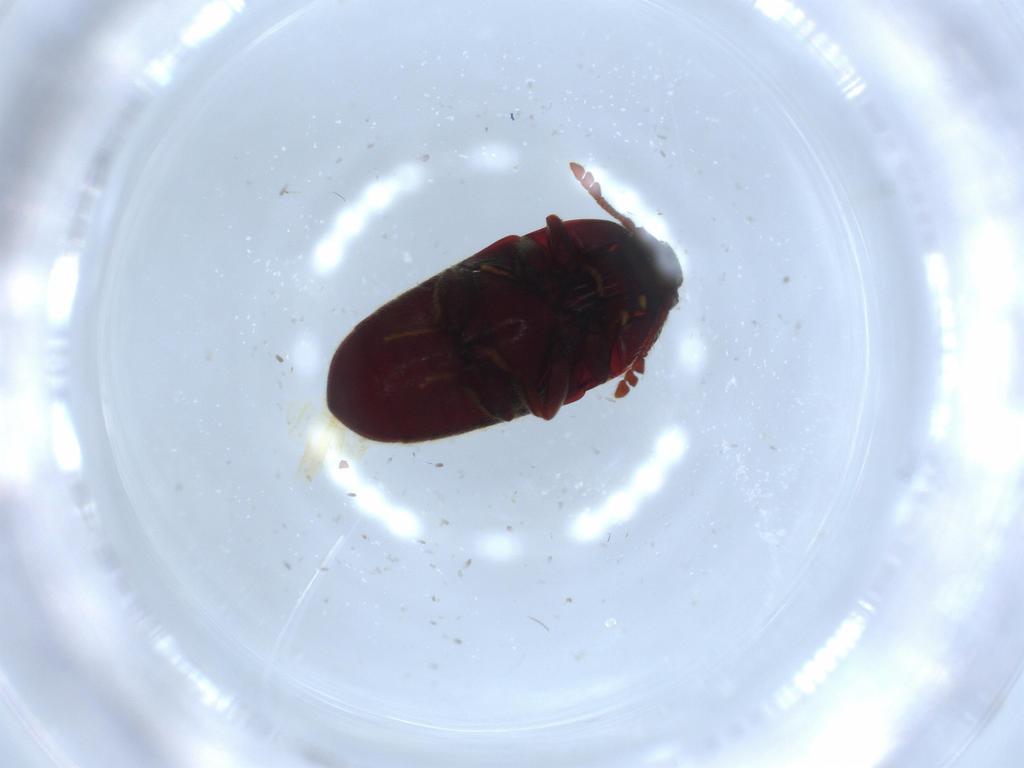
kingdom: Animalia
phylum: Arthropoda
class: Insecta
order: Coleoptera
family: Throscidae
